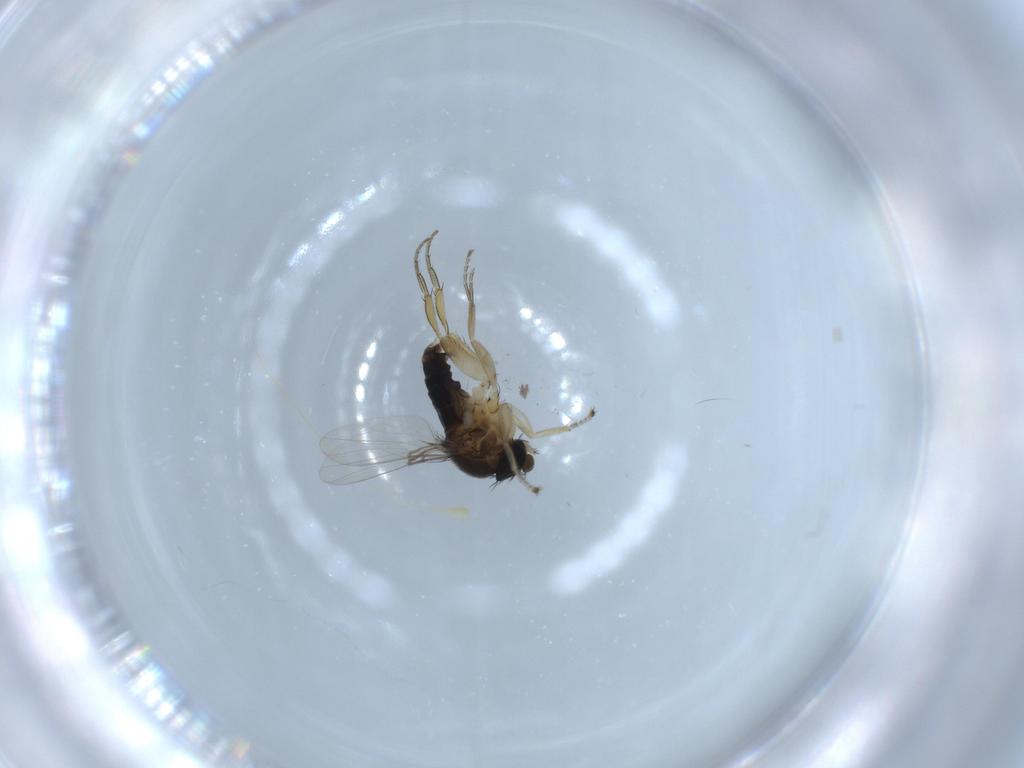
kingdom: Animalia
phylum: Arthropoda
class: Insecta
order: Diptera
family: Phoridae
